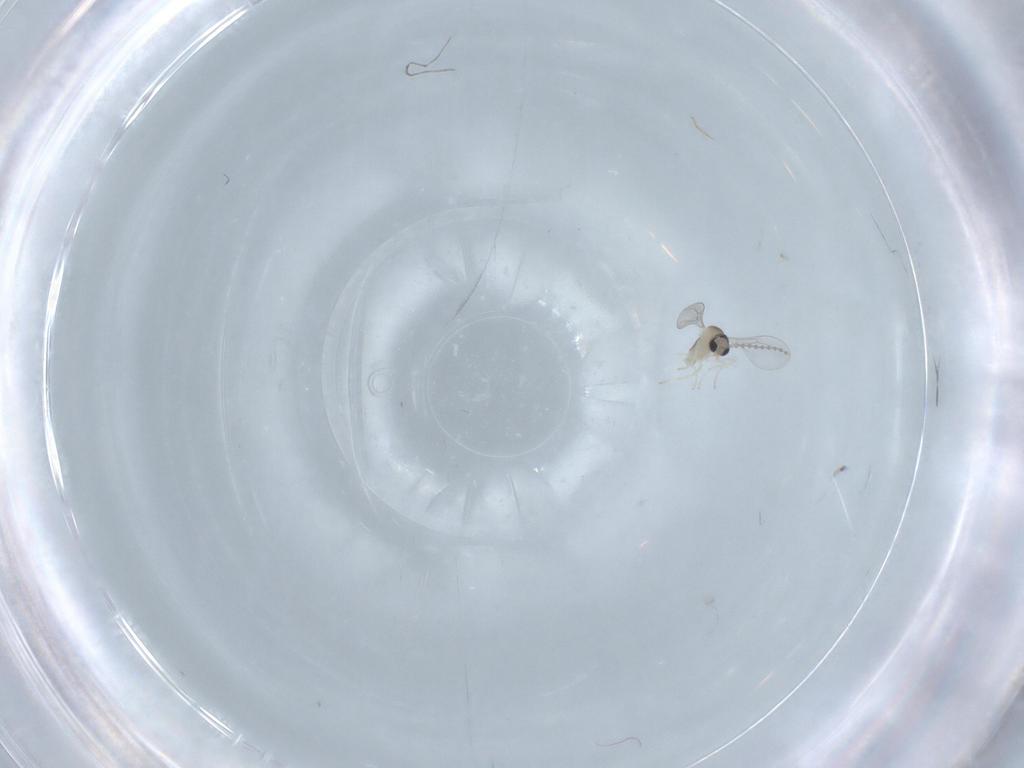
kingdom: Animalia
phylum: Arthropoda
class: Insecta
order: Diptera
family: Cecidomyiidae
